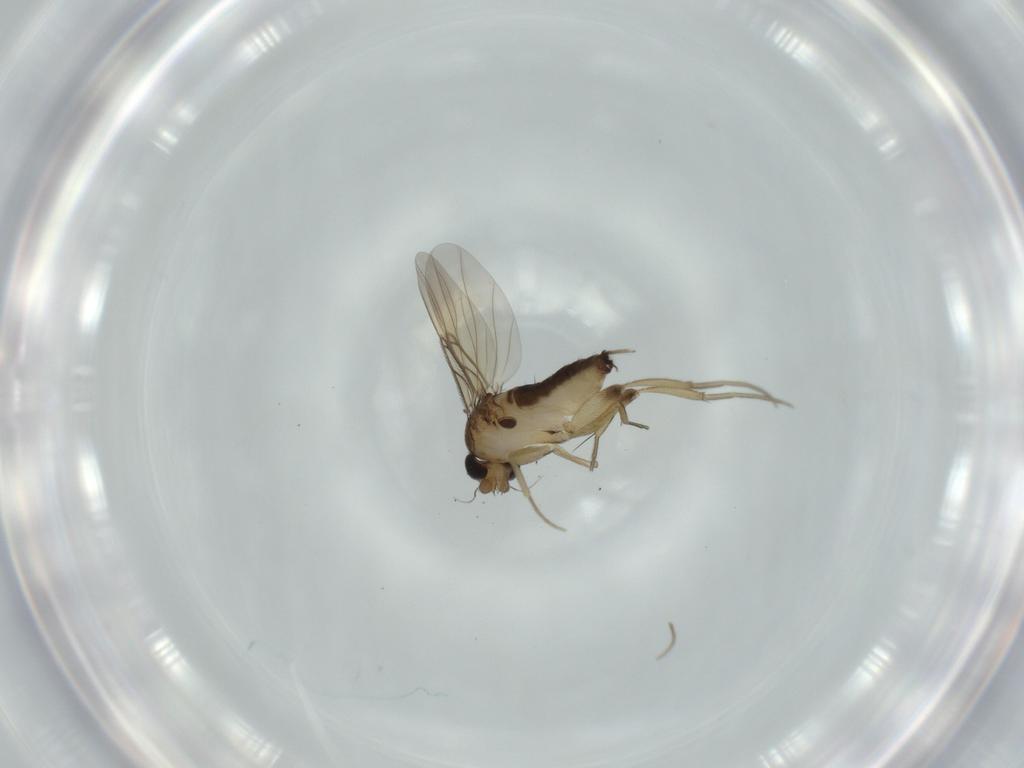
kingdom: Animalia
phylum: Arthropoda
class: Insecta
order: Diptera
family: Phoridae
